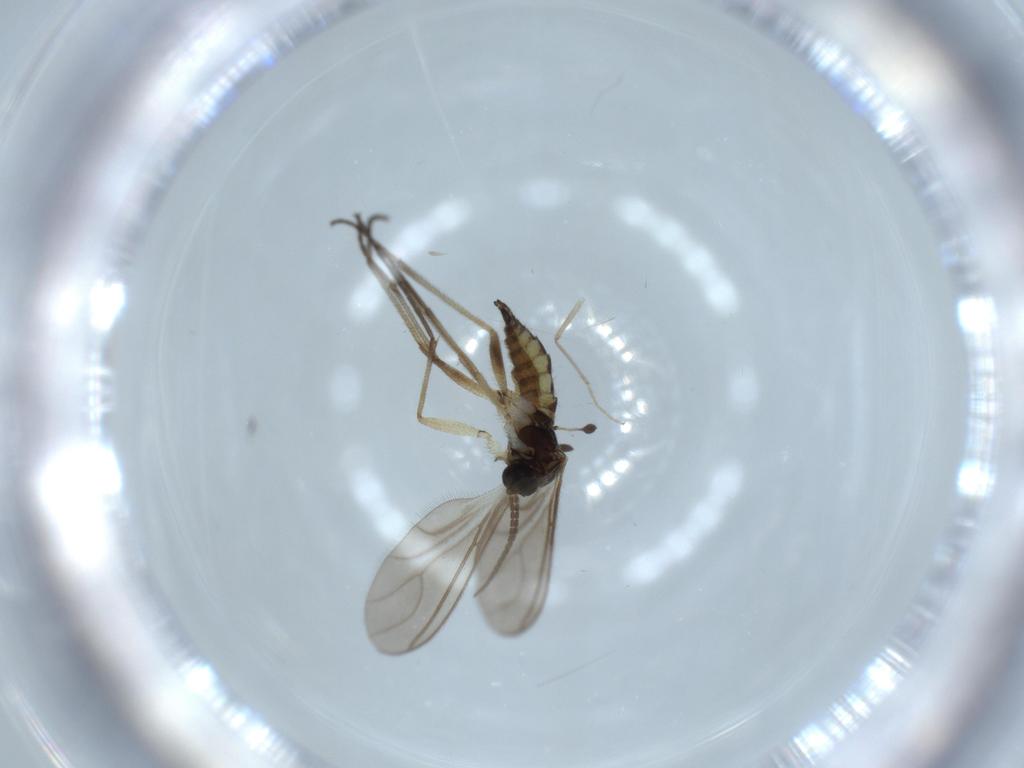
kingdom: Animalia
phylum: Arthropoda
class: Insecta
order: Diptera
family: Chironomidae
